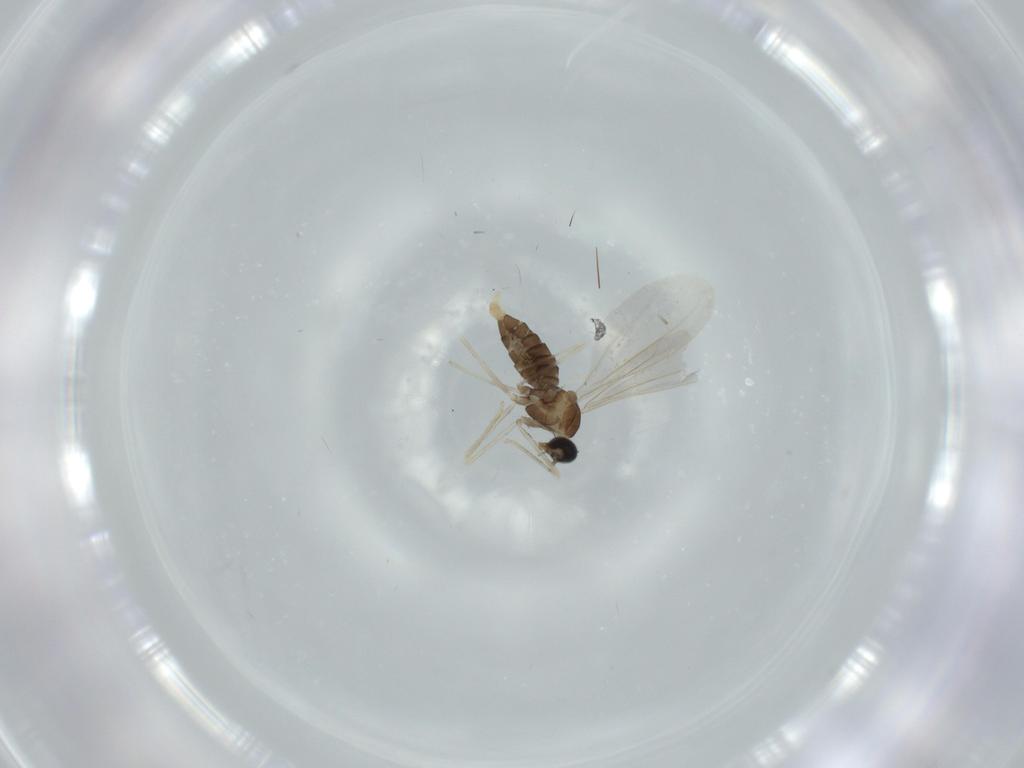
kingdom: Animalia
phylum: Arthropoda
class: Insecta
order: Diptera
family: Cecidomyiidae
